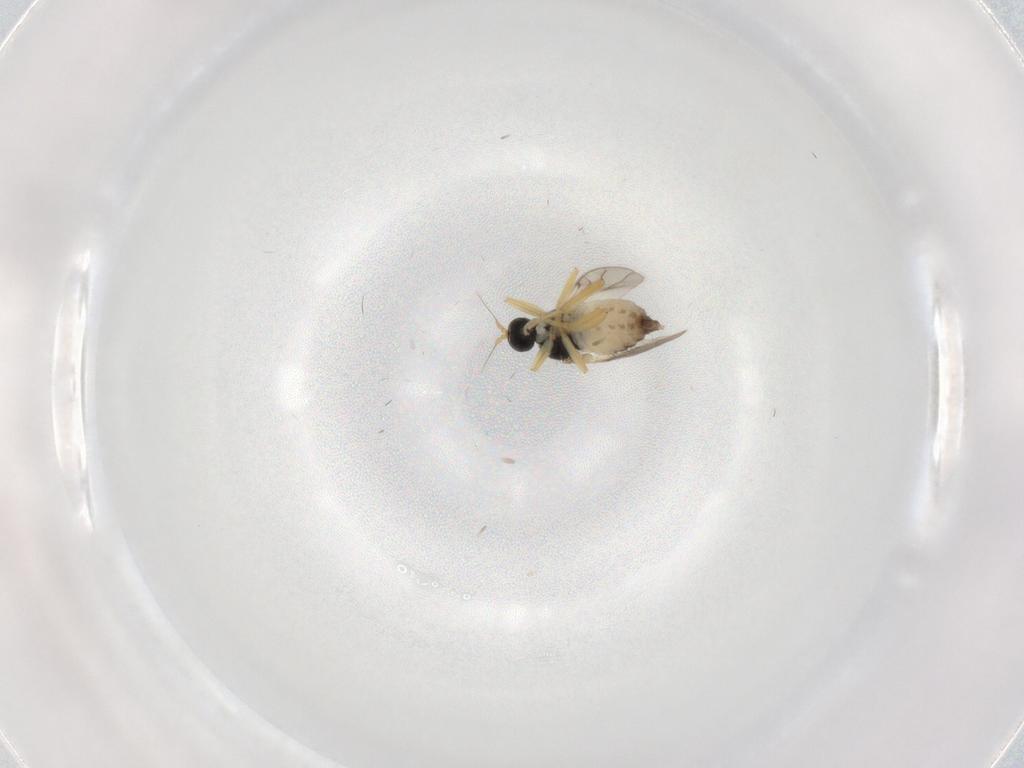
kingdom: Animalia
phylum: Arthropoda
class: Insecta
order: Diptera
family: Hybotidae
